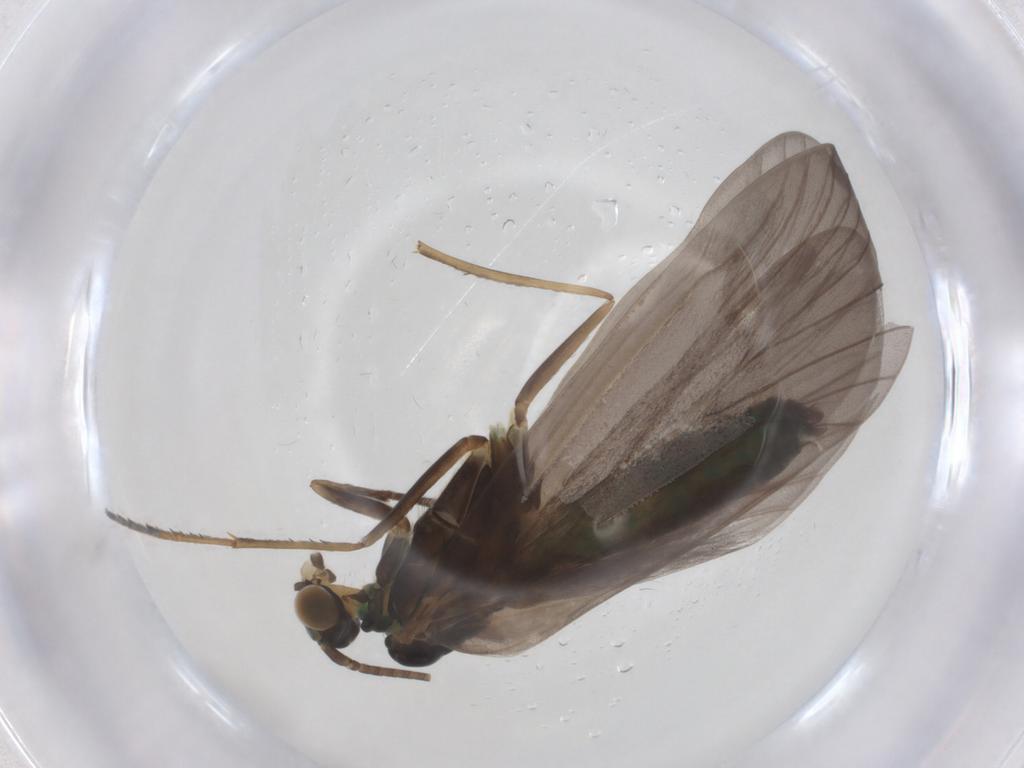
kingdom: Animalia
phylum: Arthropoda
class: Insecta
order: Trichoptera
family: Brachycentridae
